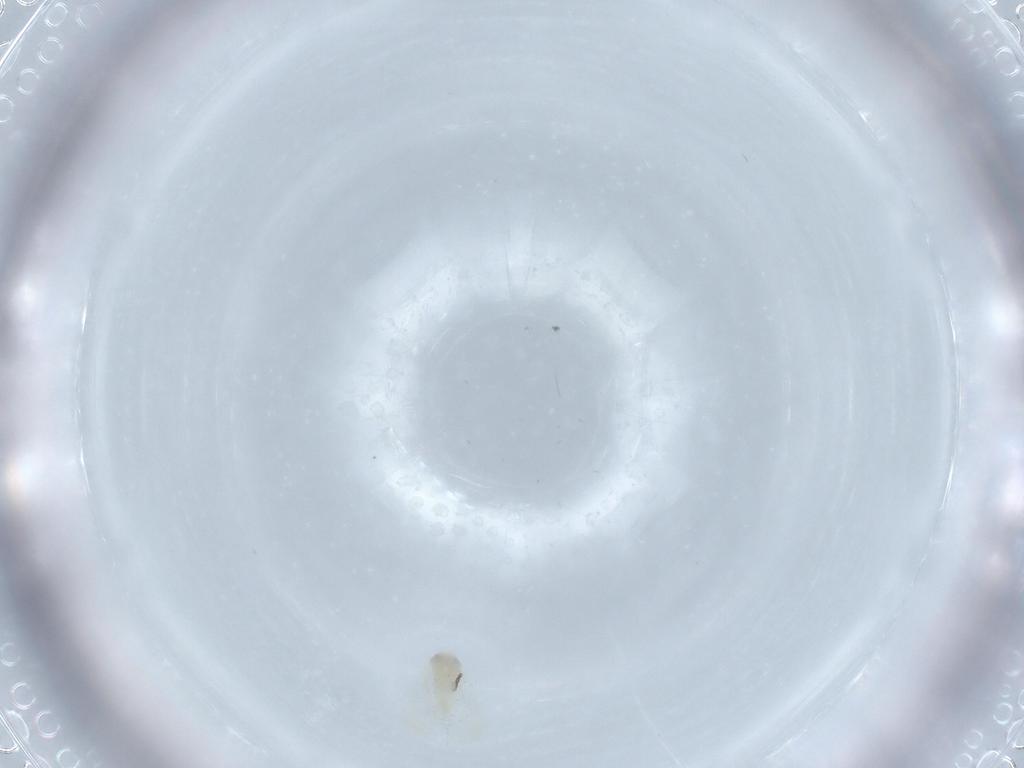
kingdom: Animalia
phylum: Arthropoda
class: Insecta
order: Hemiptera
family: Aleyrodidae
